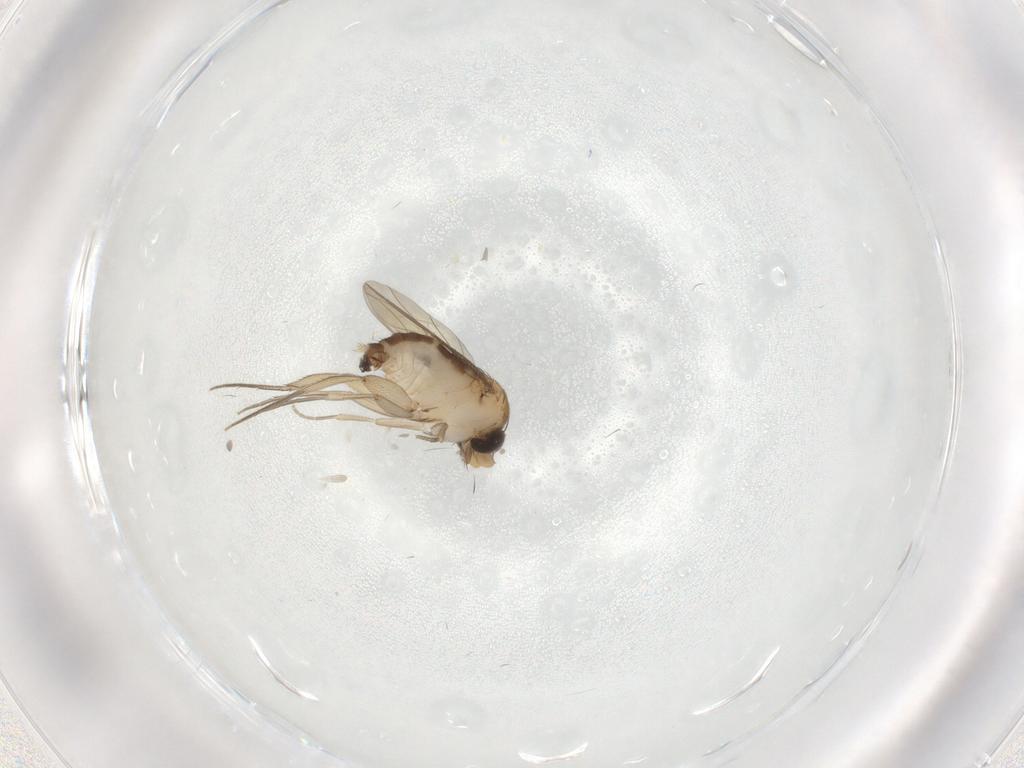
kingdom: Animalia
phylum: Arthropoda
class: Insecta
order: Diptera
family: Phoridae
